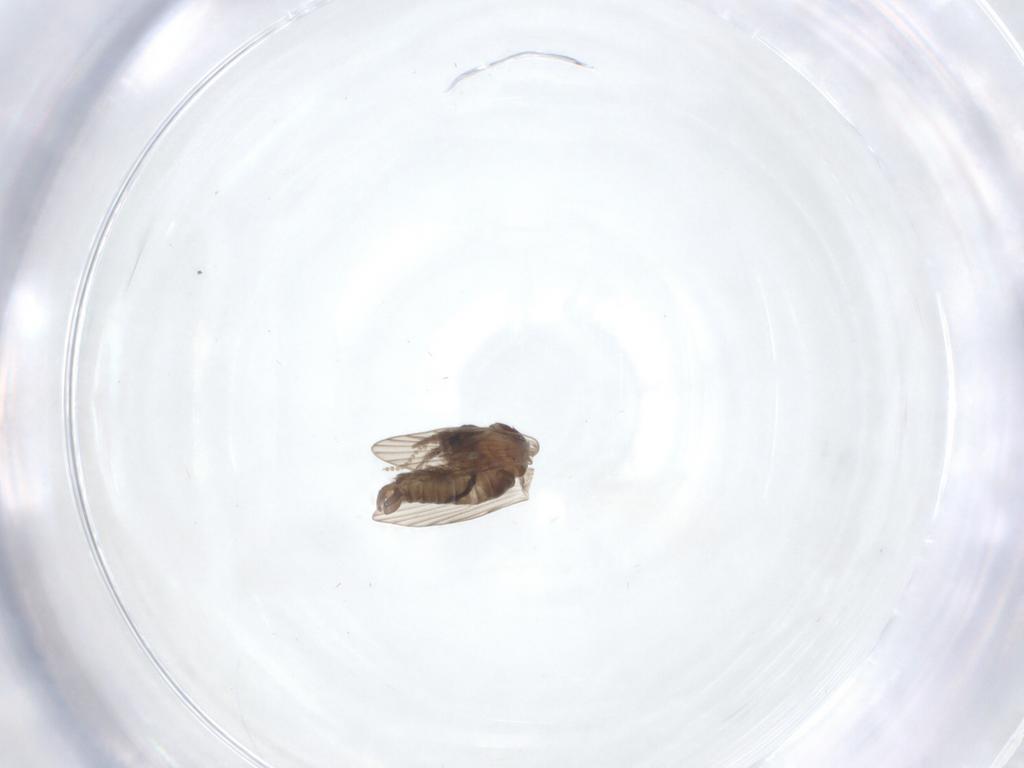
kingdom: Animalia
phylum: Arthropoda
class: Insecta
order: Diptera
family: Psychodidae
